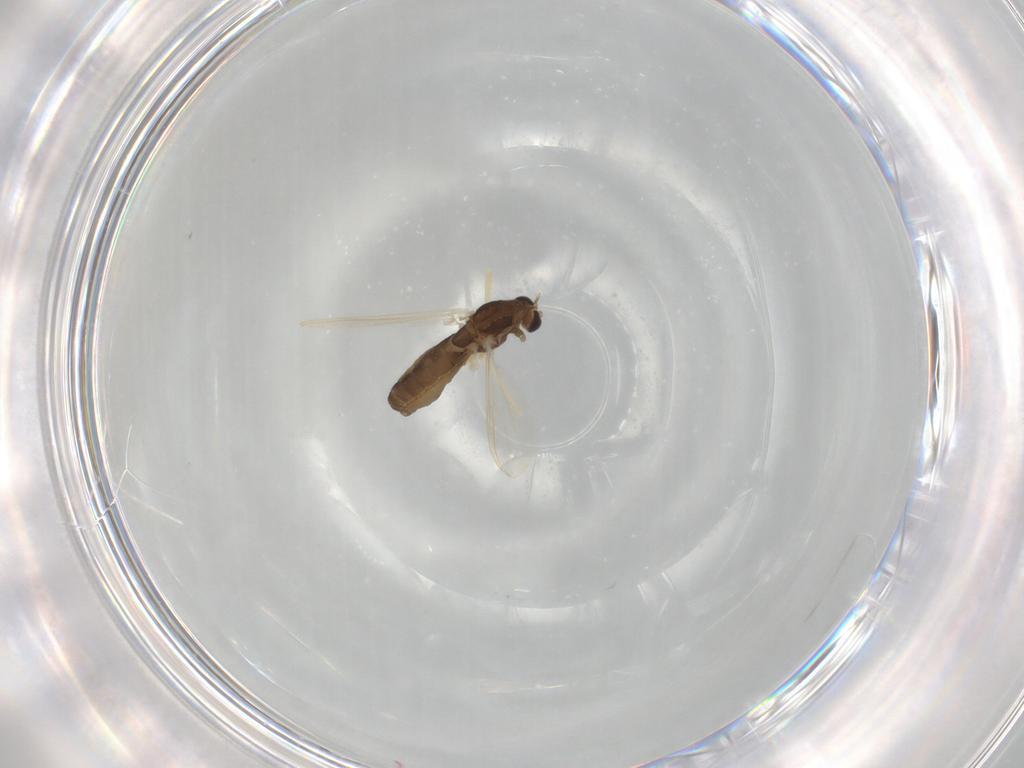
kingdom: Animalia
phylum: Arthropoda
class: Insecta
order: Diptera
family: Chironomidae
